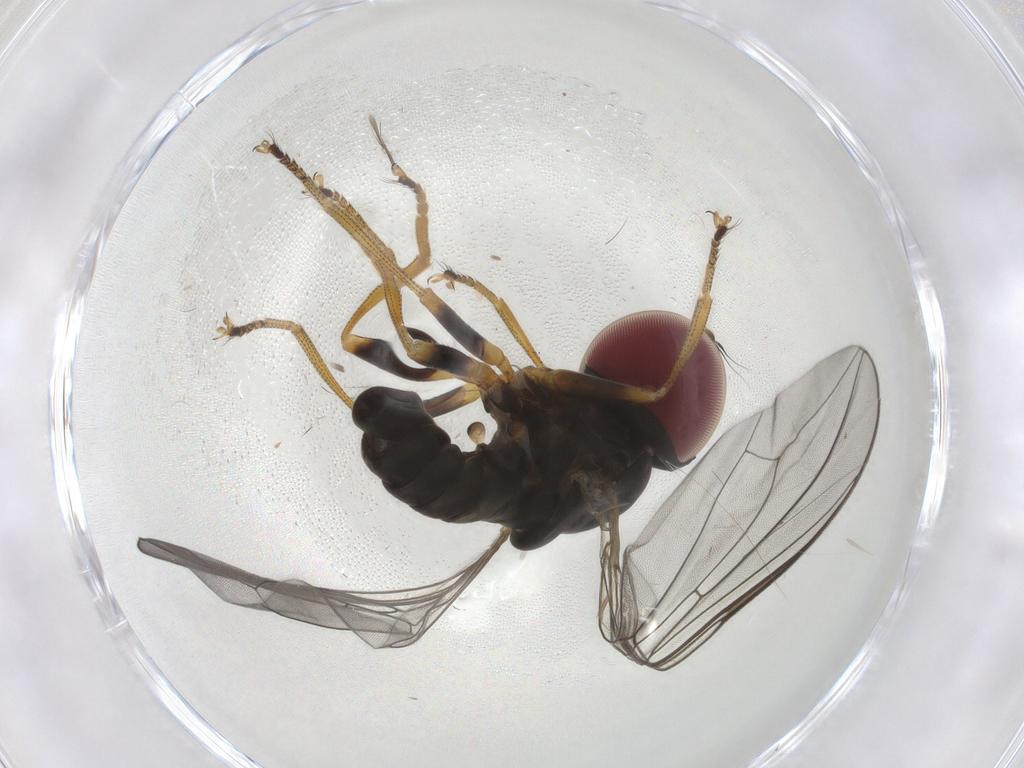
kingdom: Animalia
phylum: Arthropoda
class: Insecta
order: Diptera
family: Pipunculidae
